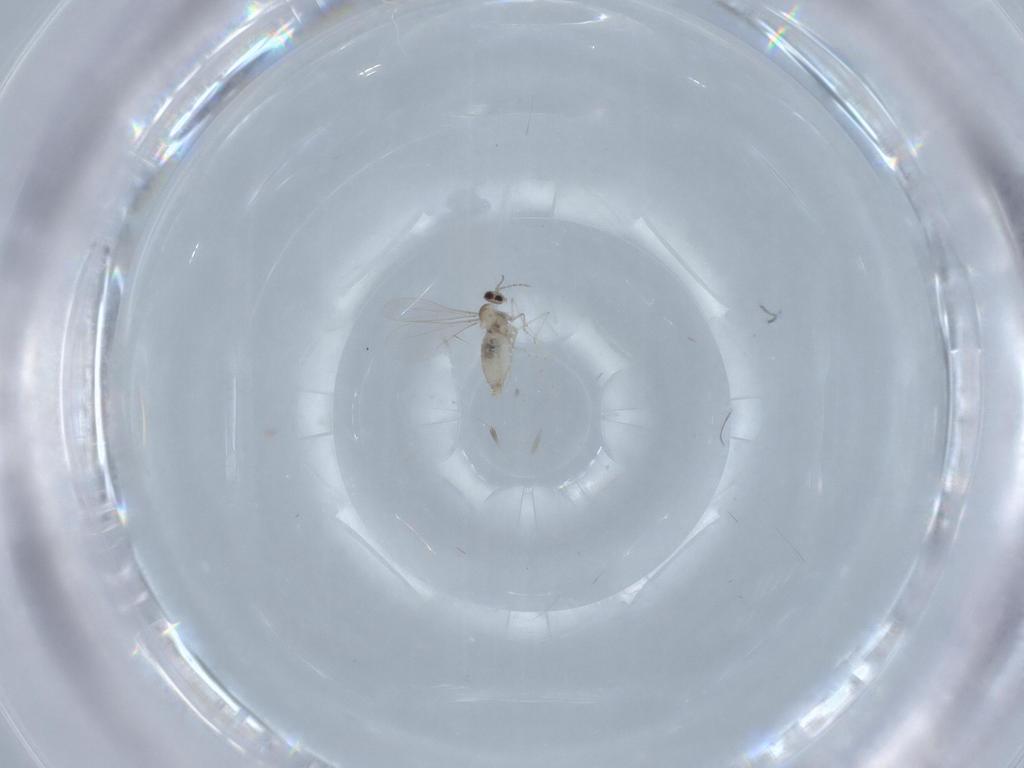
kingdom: Animalia
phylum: Arthropoda
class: Insecta
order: Diptera
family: Cecidomyiidae
